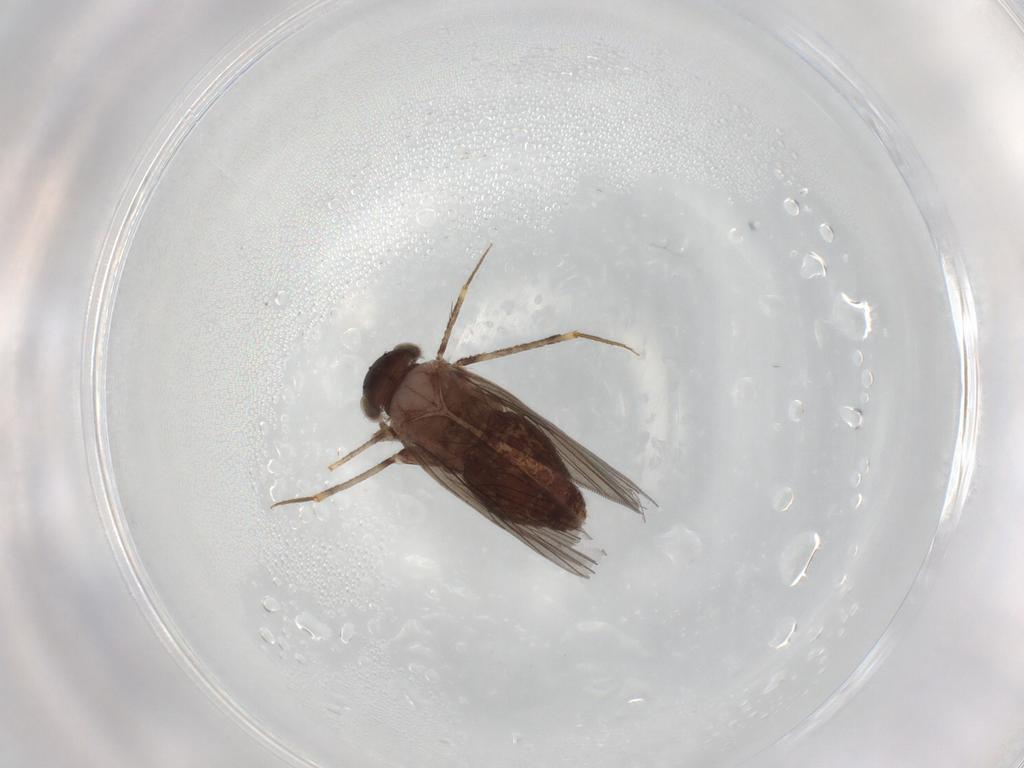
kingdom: Animalia
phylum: Arthropoda
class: Insecta
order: Psocodea
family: Lepidopsocidae
